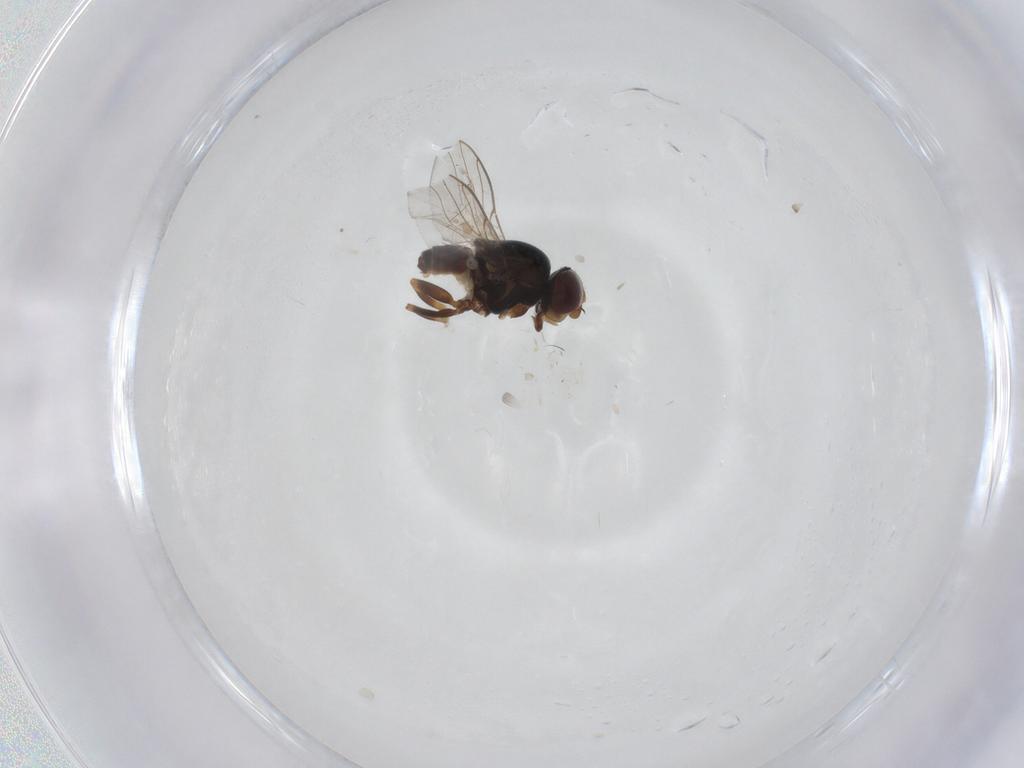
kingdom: Animalia
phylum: Arthropoda
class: Insecta
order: Diptera
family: Chloropidae
